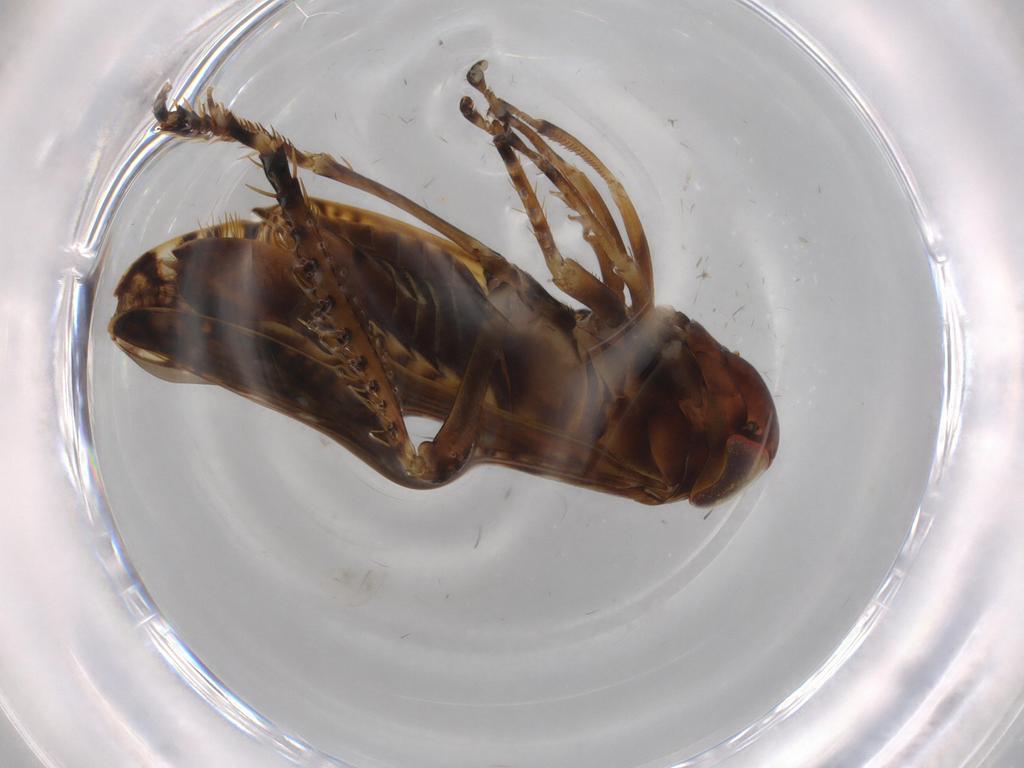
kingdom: Animalia
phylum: Arthropoda
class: Insecta
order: Hemiptera
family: Cicadellidae
